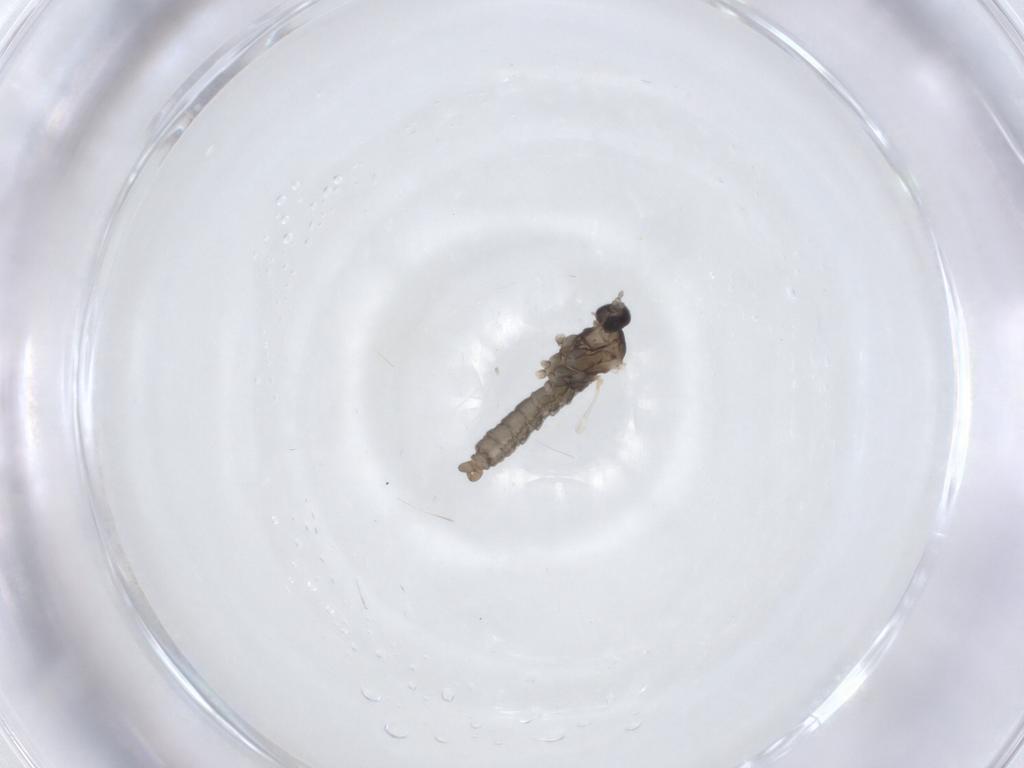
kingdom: Animalia
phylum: Arthropoda
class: Insecta
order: Diptera
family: Cecidomyiidae
